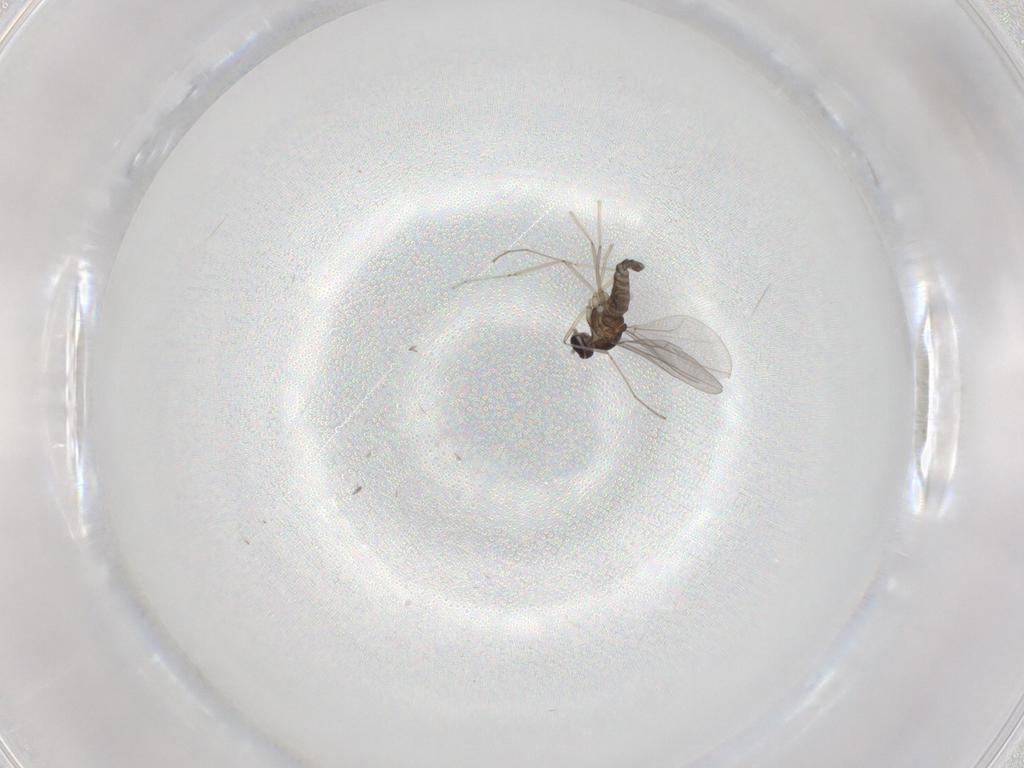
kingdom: Animalia
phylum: Arthropoda
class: Insecta
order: Diptera
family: Cecidomyiidae
